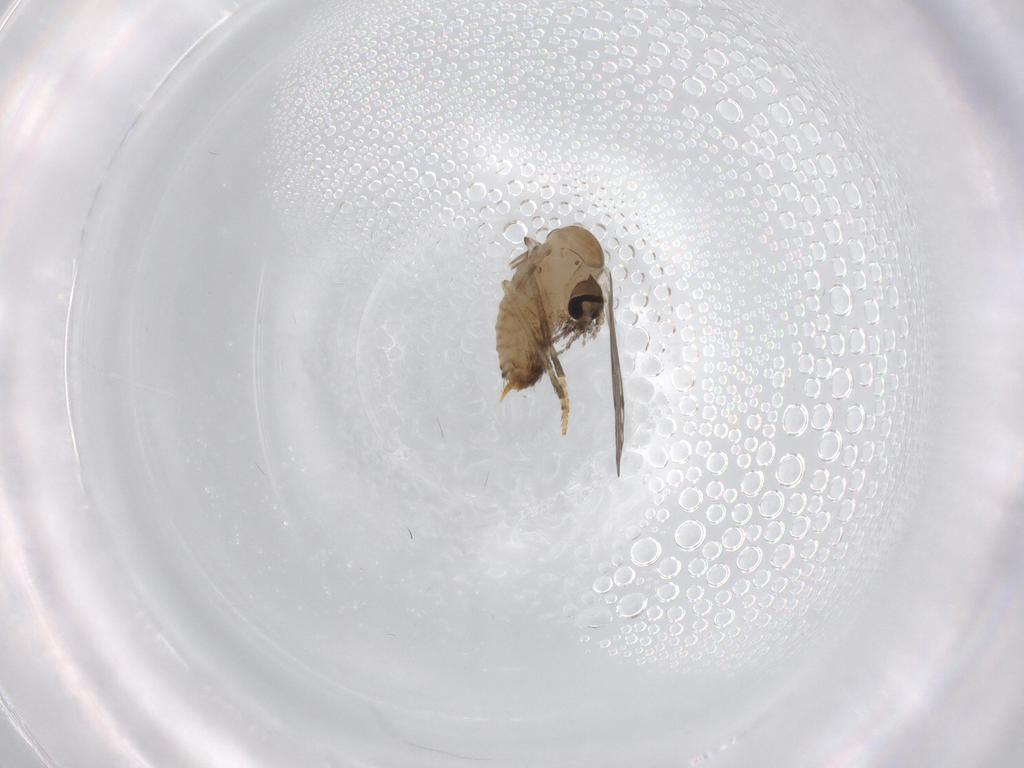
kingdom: Animalia
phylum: Arthropoda
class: Insecta
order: Diptera
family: Psychodidae
